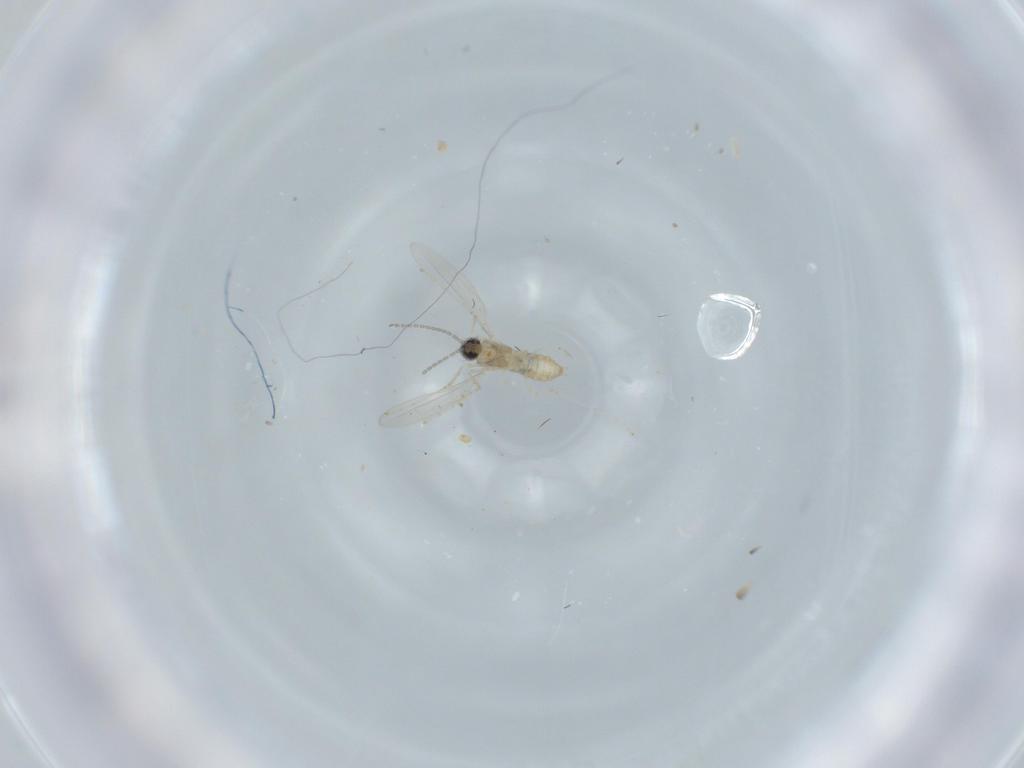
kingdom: Animalia
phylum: Arthropoda
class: Insecta
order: Diptera
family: Cecidomyiidae
